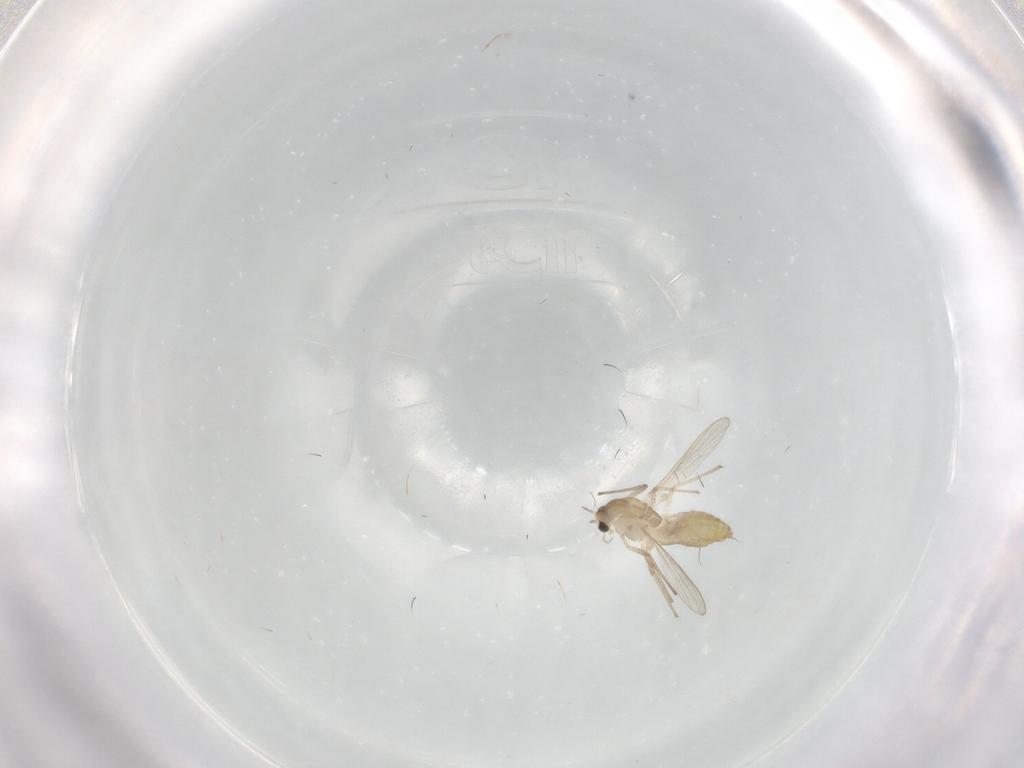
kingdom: Animalia
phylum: Arthropoda
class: Insecta
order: Diptera
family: Chironomidae
